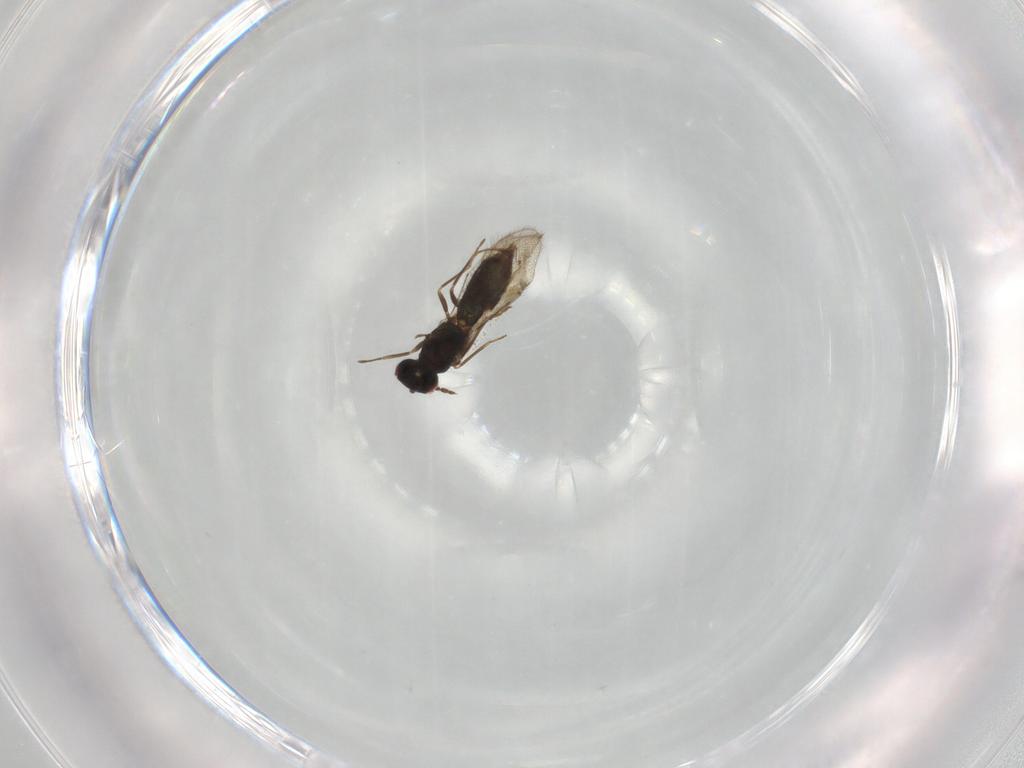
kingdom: Animalia
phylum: Arthropoda
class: Insecta
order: Hymenoptera
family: Eulophidae
